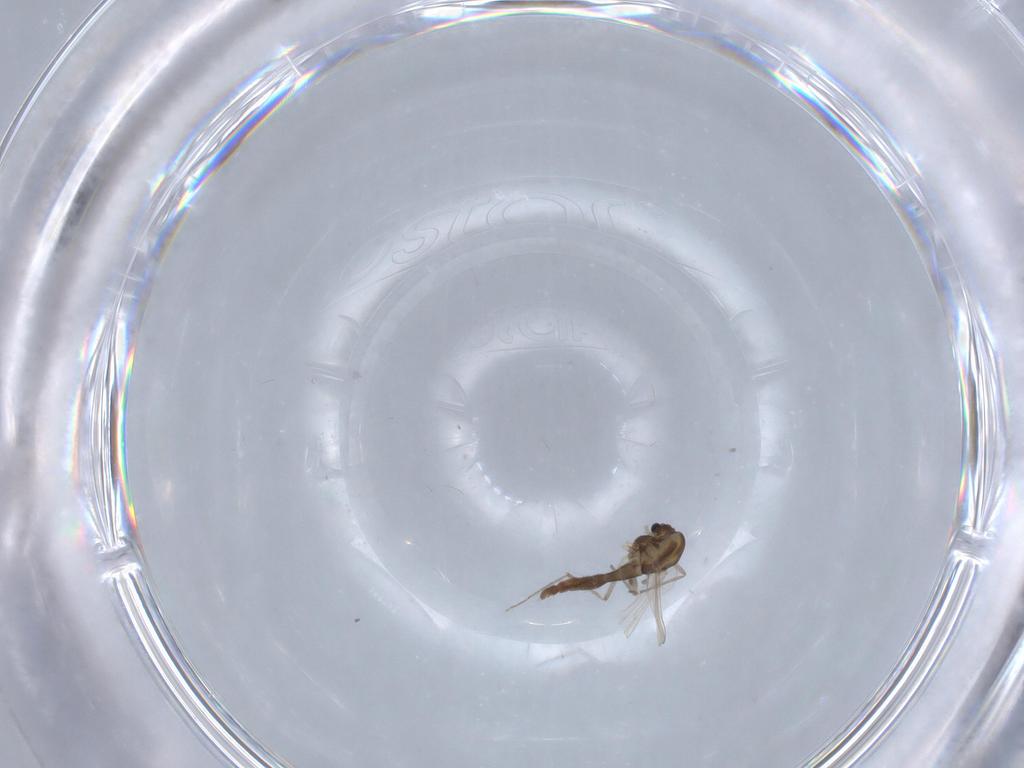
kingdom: Animalia
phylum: Arthropoda
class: Insecta
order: Diptera
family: Chironomidae
